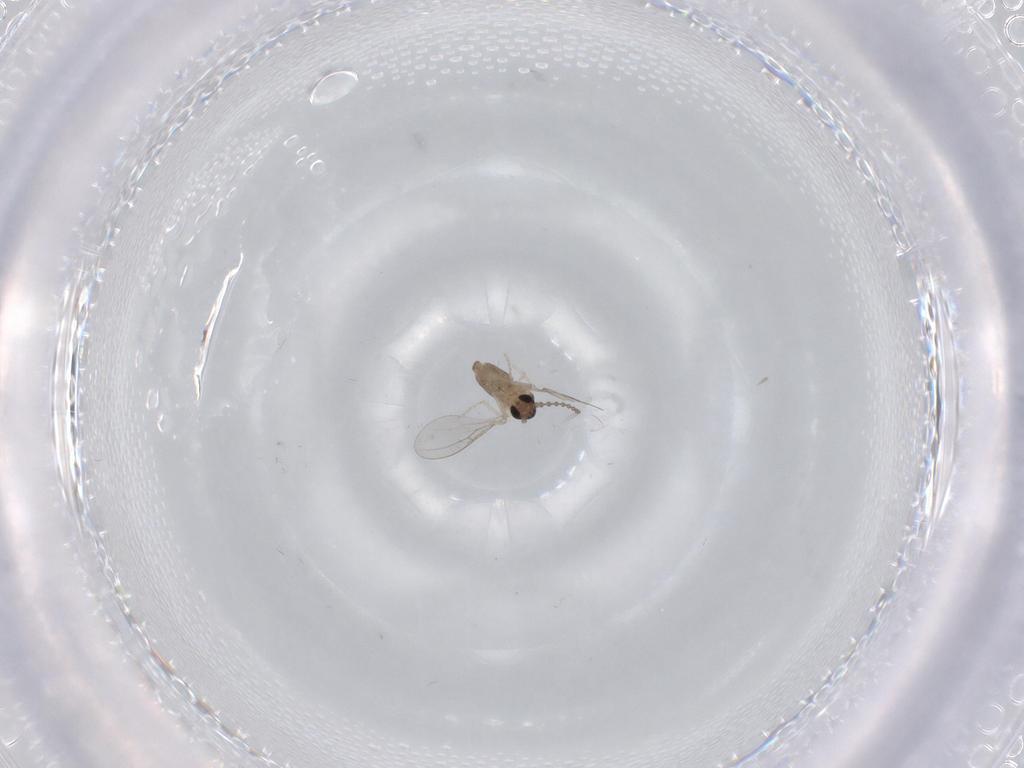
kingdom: Animalia
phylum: Arthropoda
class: Insecta
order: Diptera
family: Cecidomyiidae
